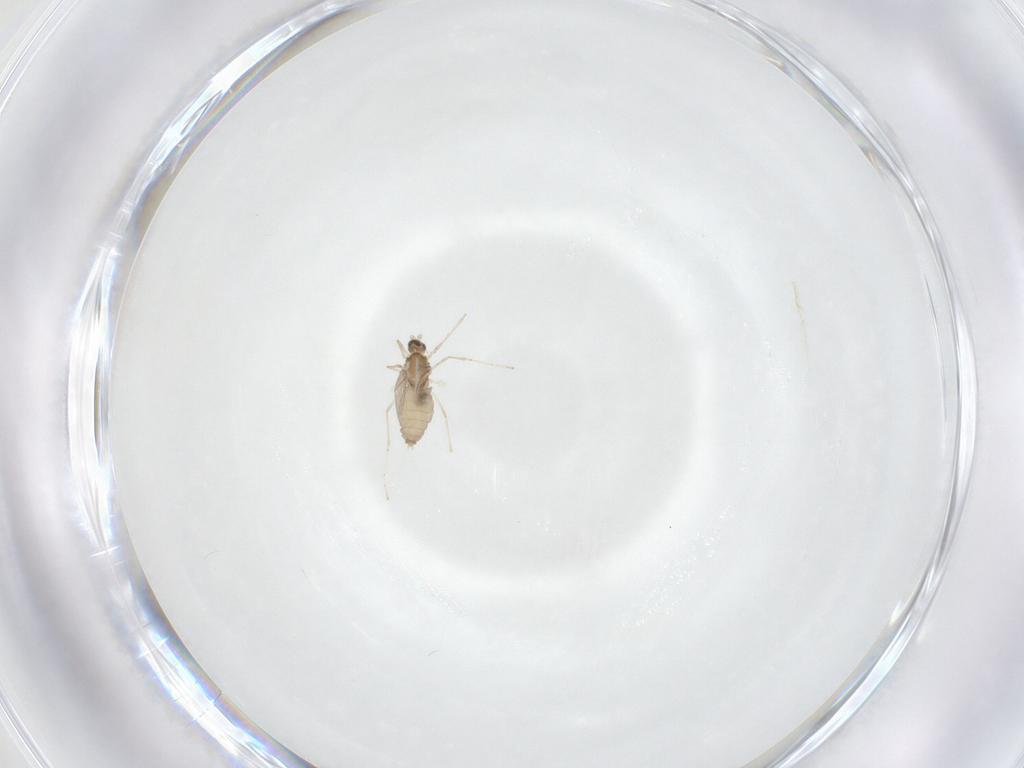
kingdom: Animalia
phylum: Arthropoda
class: Insecta
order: Diptera
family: Cecidomyiidae
